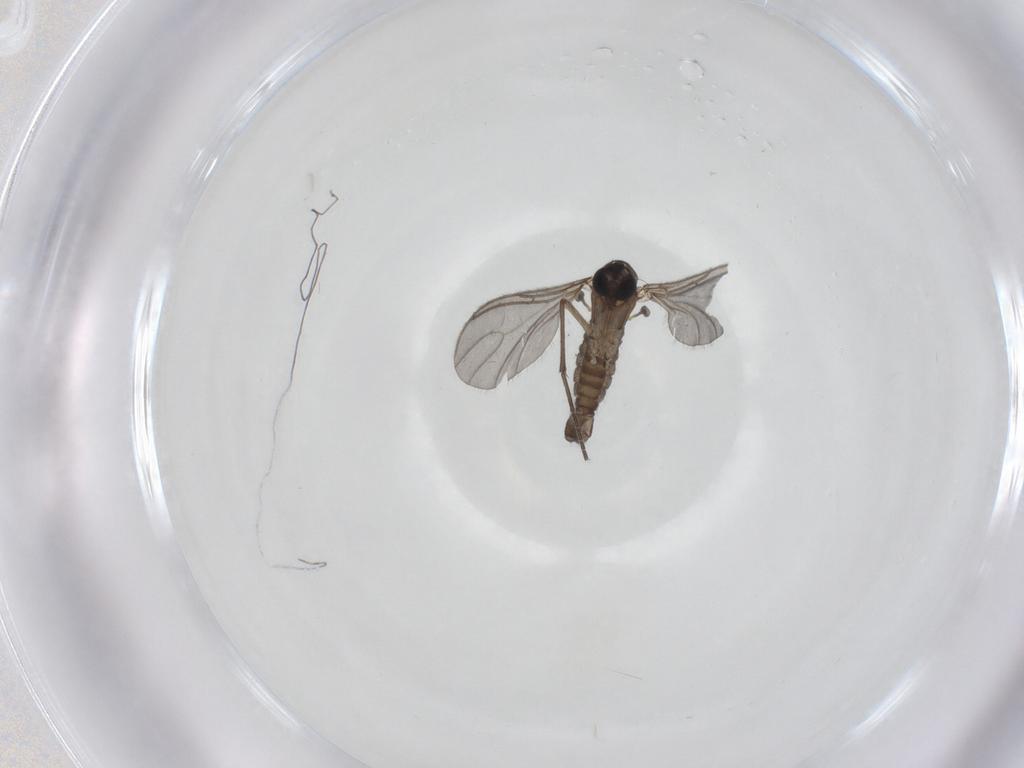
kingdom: Animalia
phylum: Arthropoda
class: Insecta
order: Diptera
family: Sciaridae
